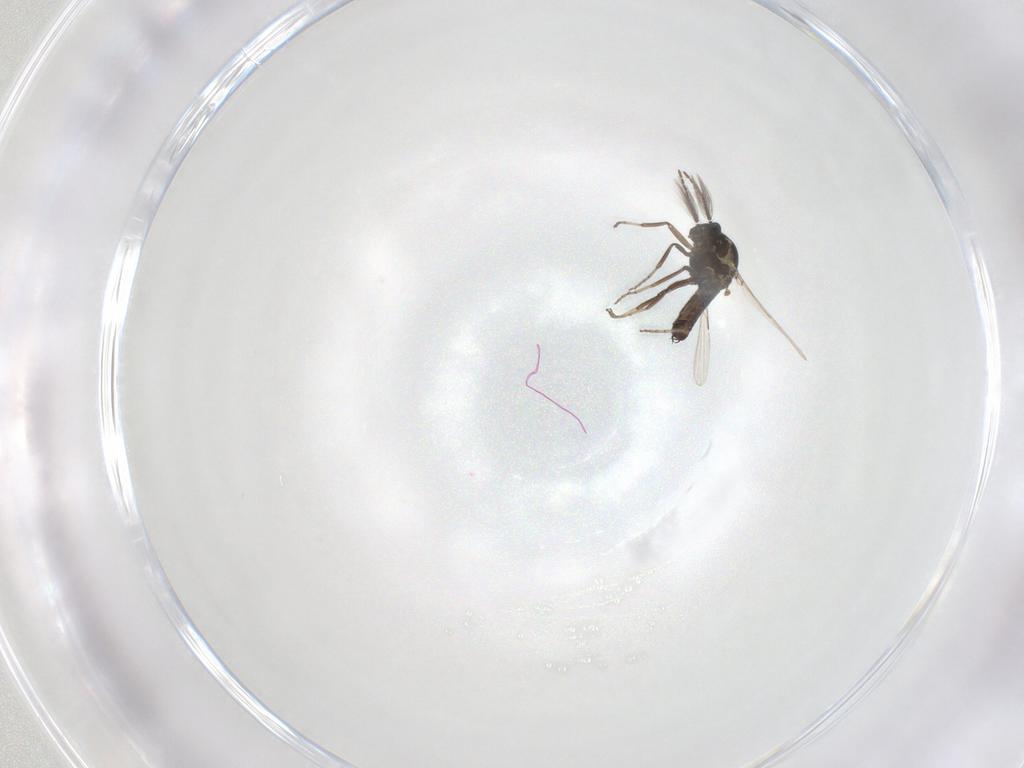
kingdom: Animalia
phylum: Arthropoda
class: Insecta
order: Diptera
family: Ceratopogonidae
